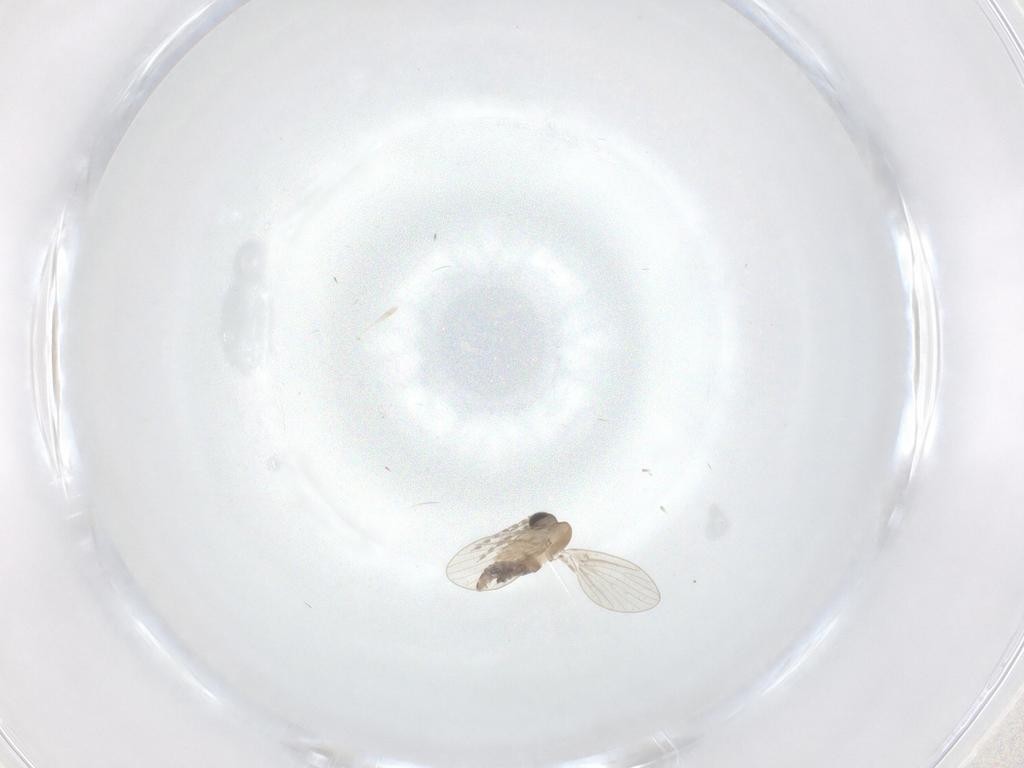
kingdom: Animalia
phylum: Arthropoda
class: Insecta
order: Diptera
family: Psychodidae
